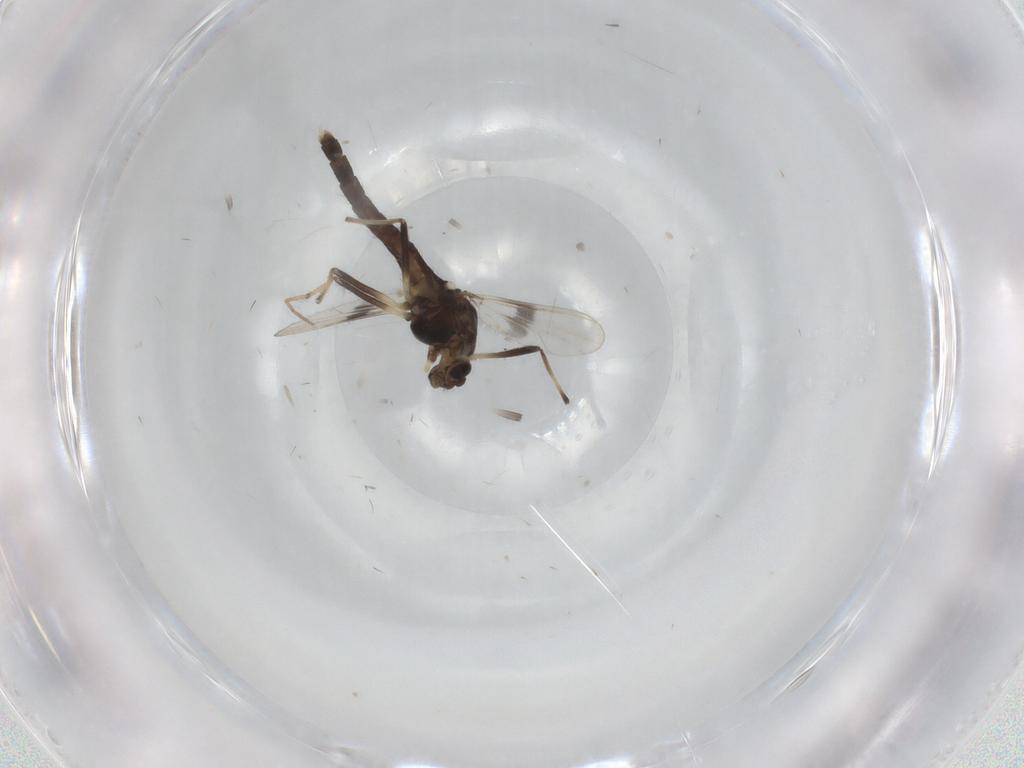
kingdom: Animalia
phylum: Arthropoda
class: Insecta
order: Diptera
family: Chironomidae
